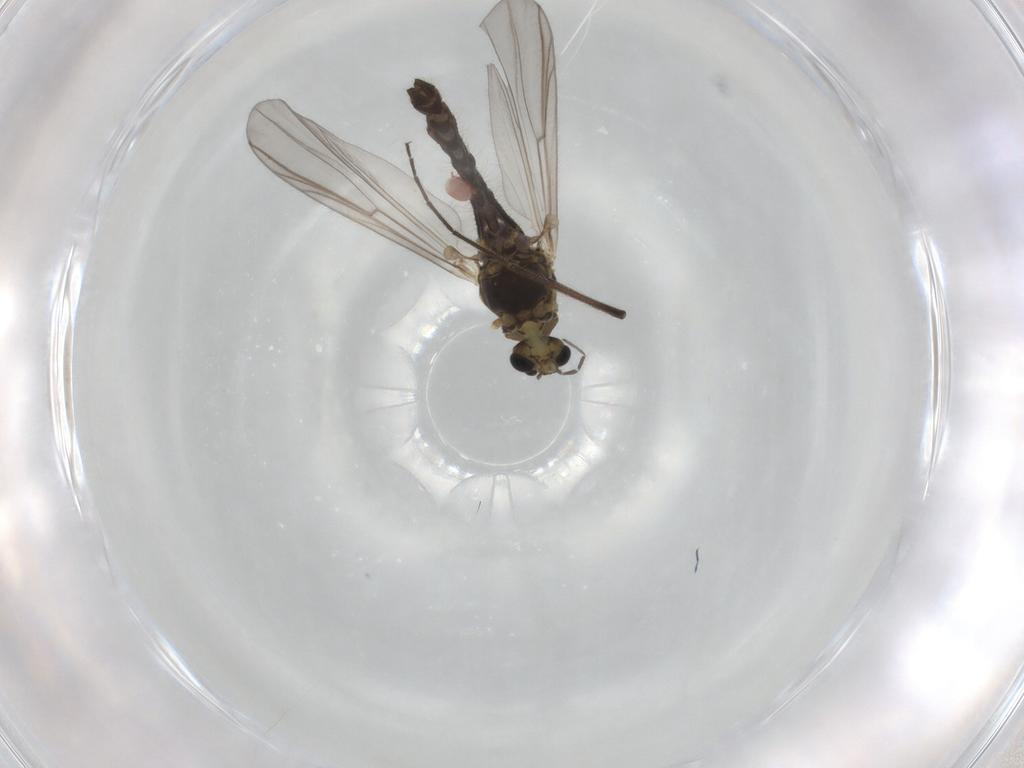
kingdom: Animalia
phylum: Arthropoda
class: Insecta
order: Diptera
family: Chironomidae
